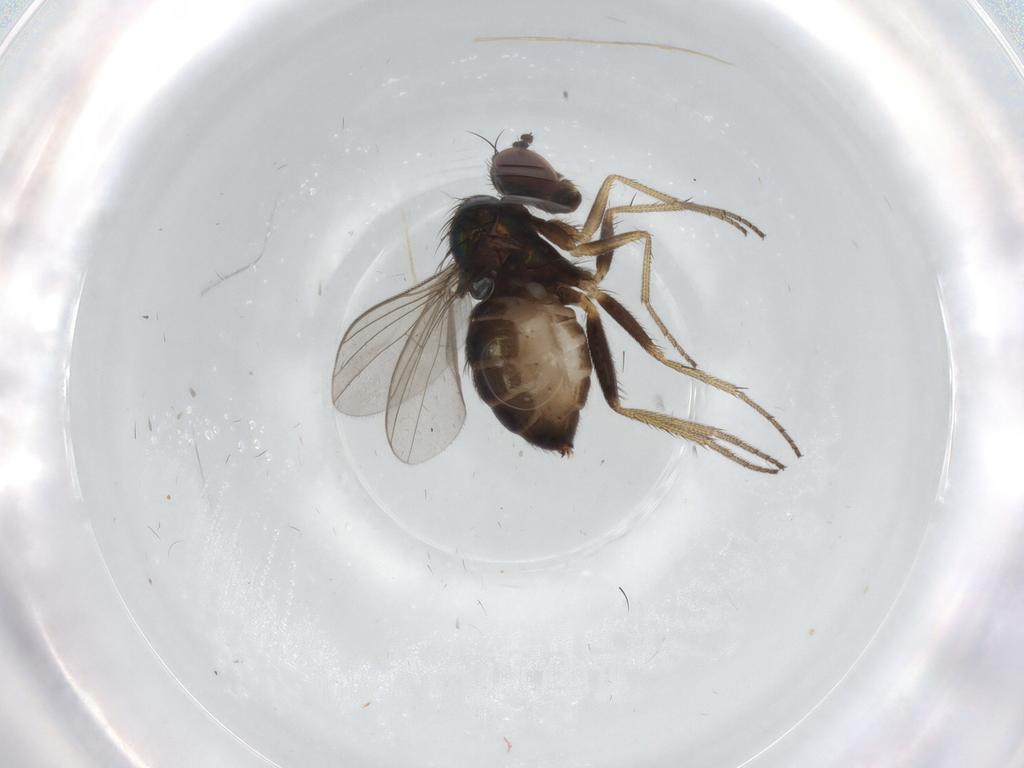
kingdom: Animalia
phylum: Arthropoda
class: Insecta
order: Diptera
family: Cecidomyiidae
